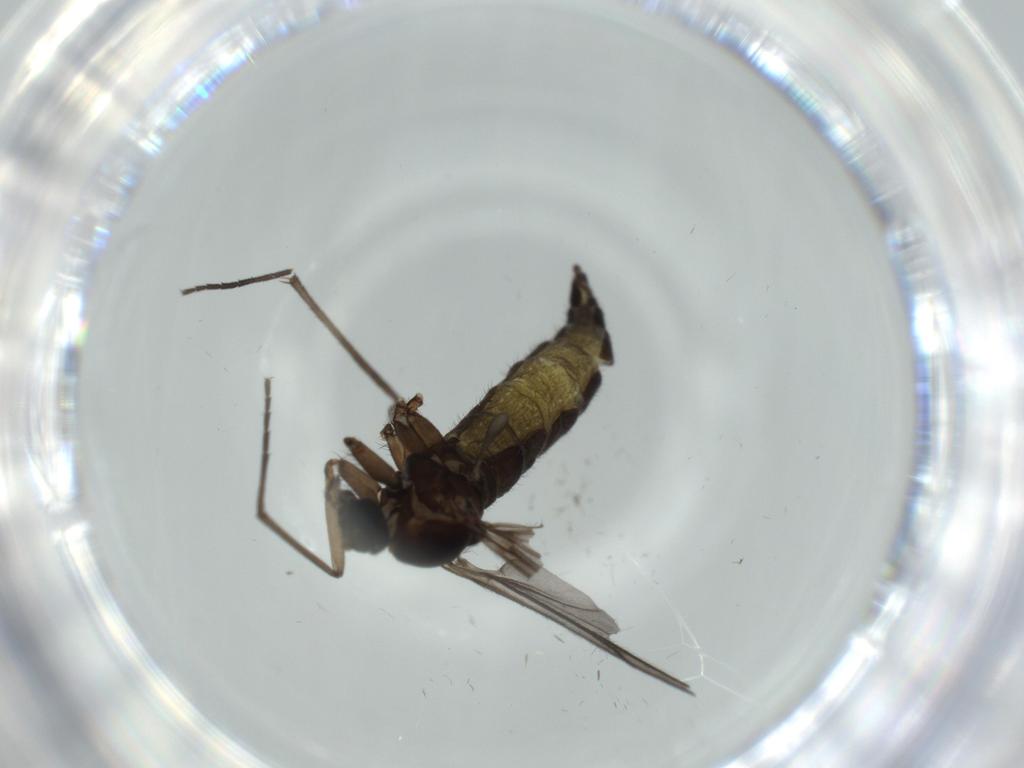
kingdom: Animalia
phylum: Arthropoda
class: Insecta
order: Diptera
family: Sciaridae
